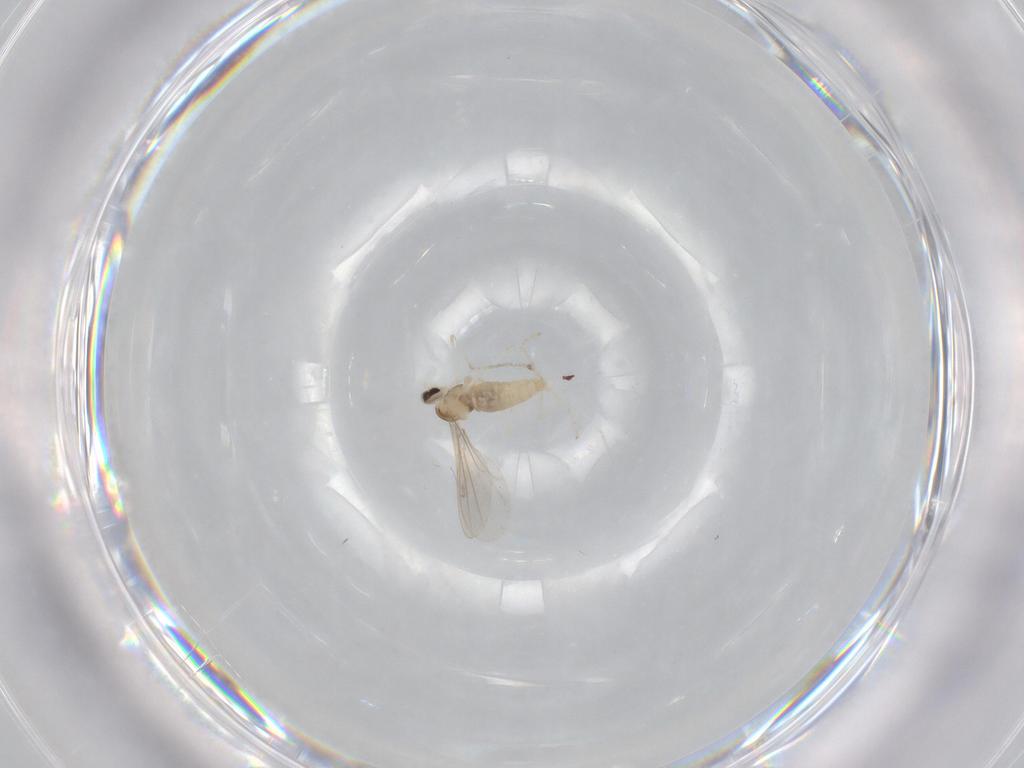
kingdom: Animalia
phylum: Arthropoda
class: Insecta
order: Diptera
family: Cecidomyiidae
